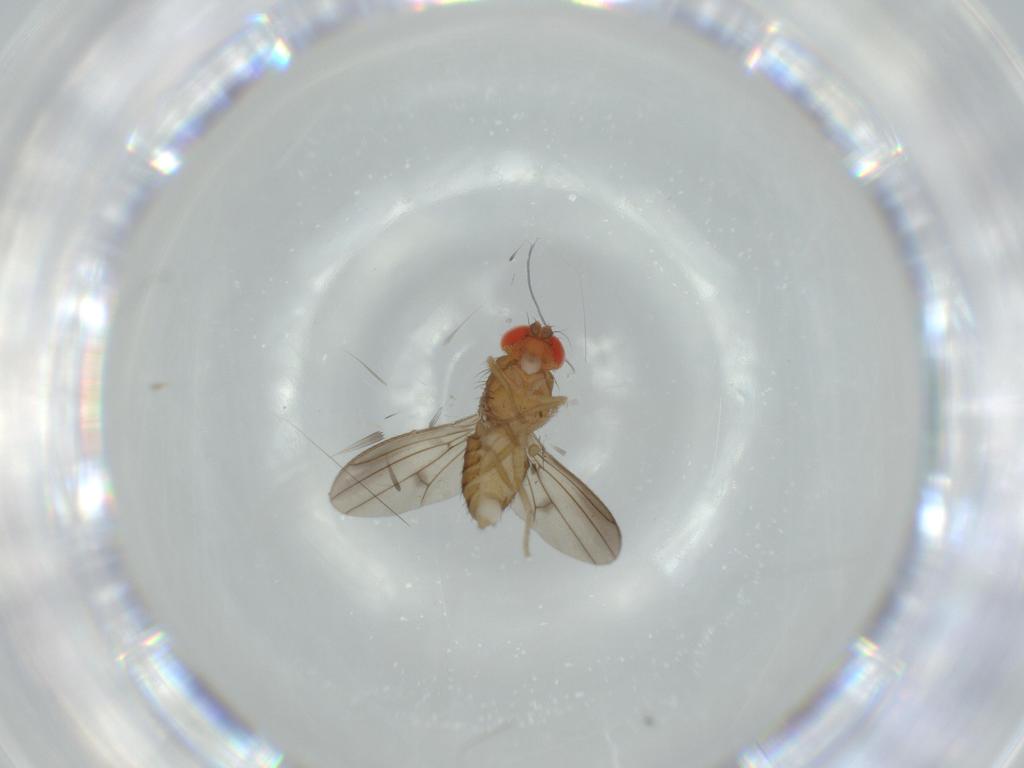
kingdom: Animalia
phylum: Arthropoda
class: Insecta
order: Diptera
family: Drosophilidae
